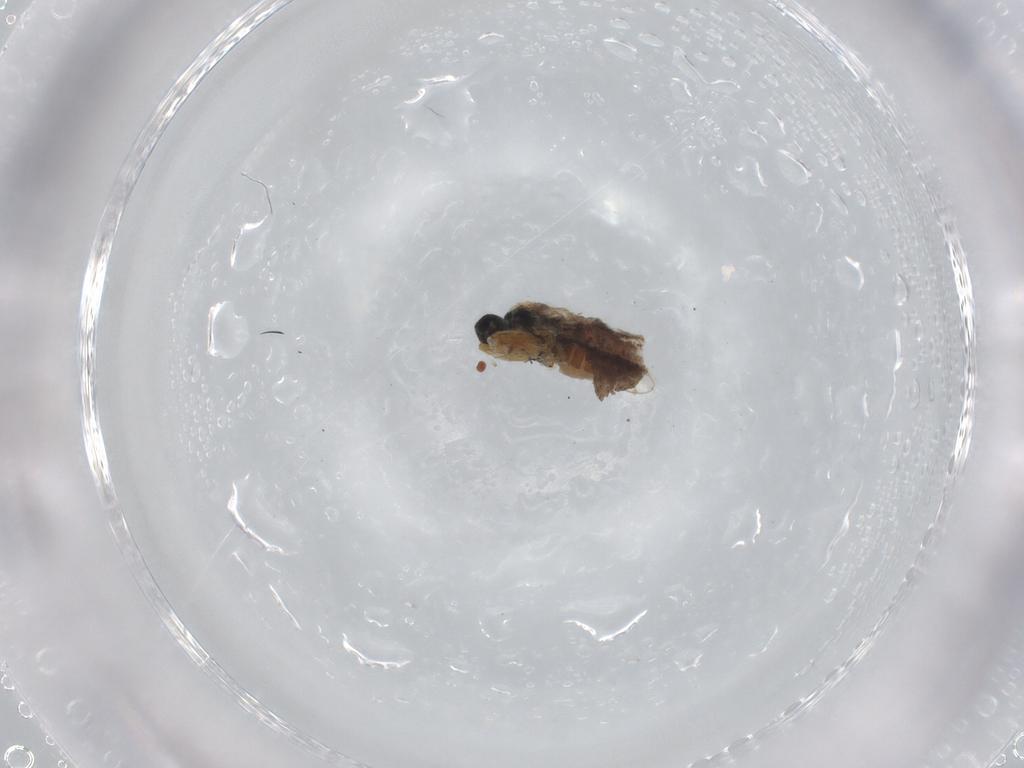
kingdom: Animalia
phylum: Arthropoda
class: Insecta
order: Diptera
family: Hybotidae
